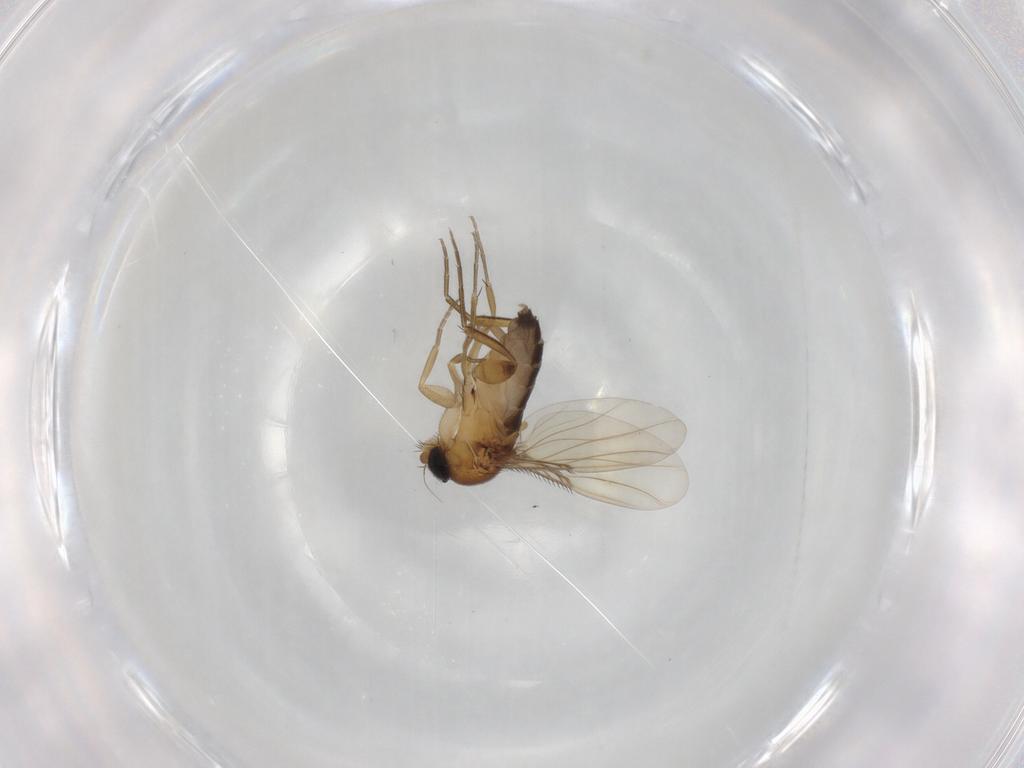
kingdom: Animalia
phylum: Arthropoda
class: Insecta
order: Diptera
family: Phoridae
